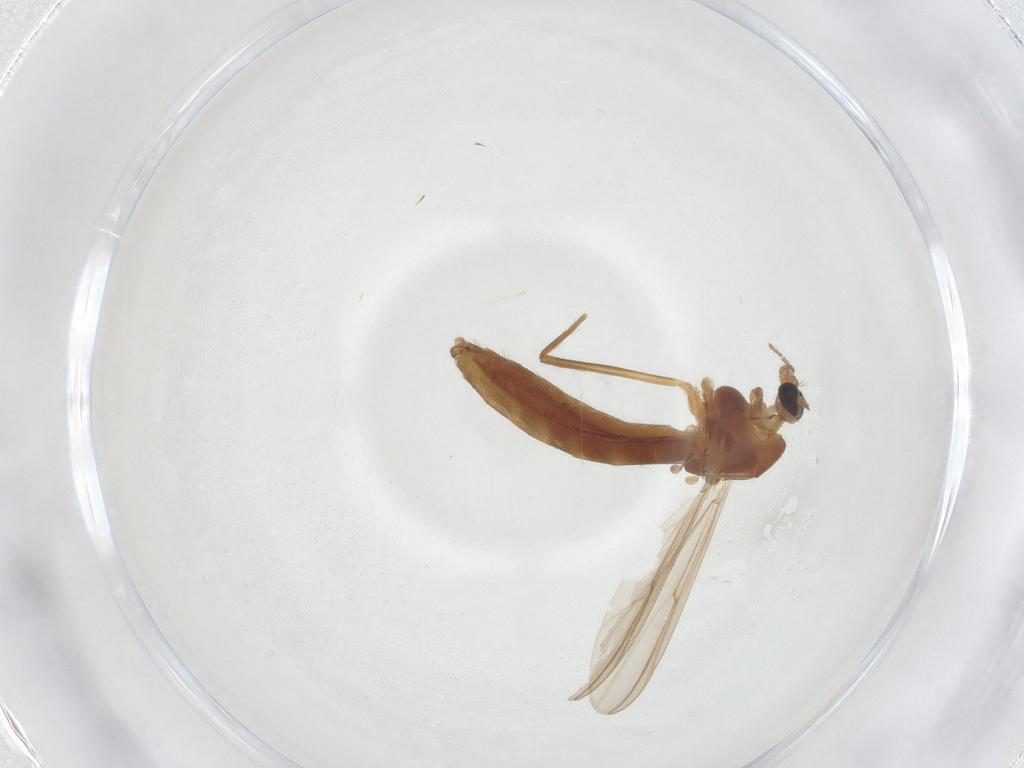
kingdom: Animalia
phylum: Arthropoda
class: Insecta
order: Diptera
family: Chironomidae
